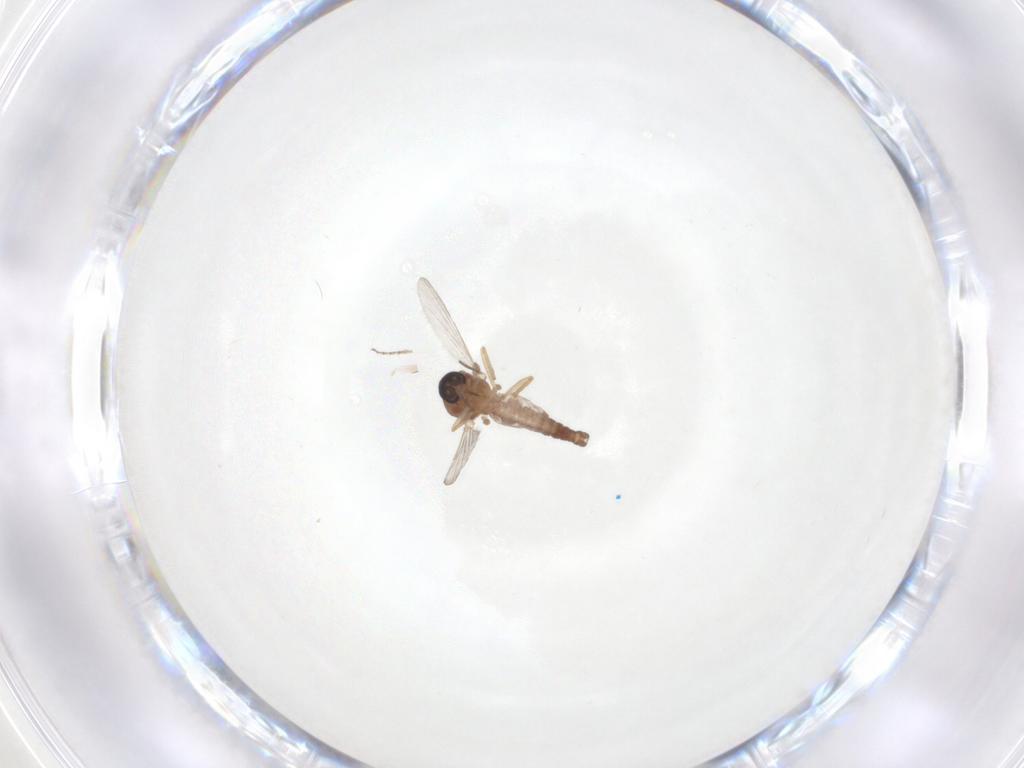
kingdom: Animalia
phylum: Arthropoda
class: Insecta
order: Diptera
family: Ceratopogonidae
